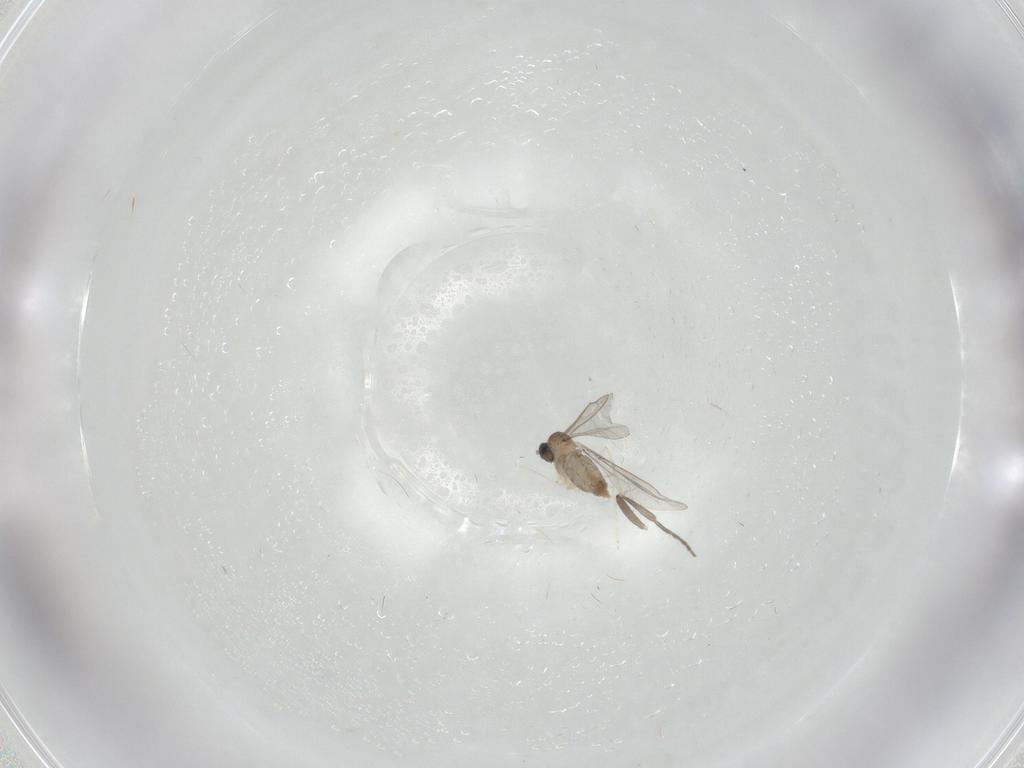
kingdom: Animalia
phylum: Arthropoda
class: Insecta
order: Diptera
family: Cecidomyiidae
